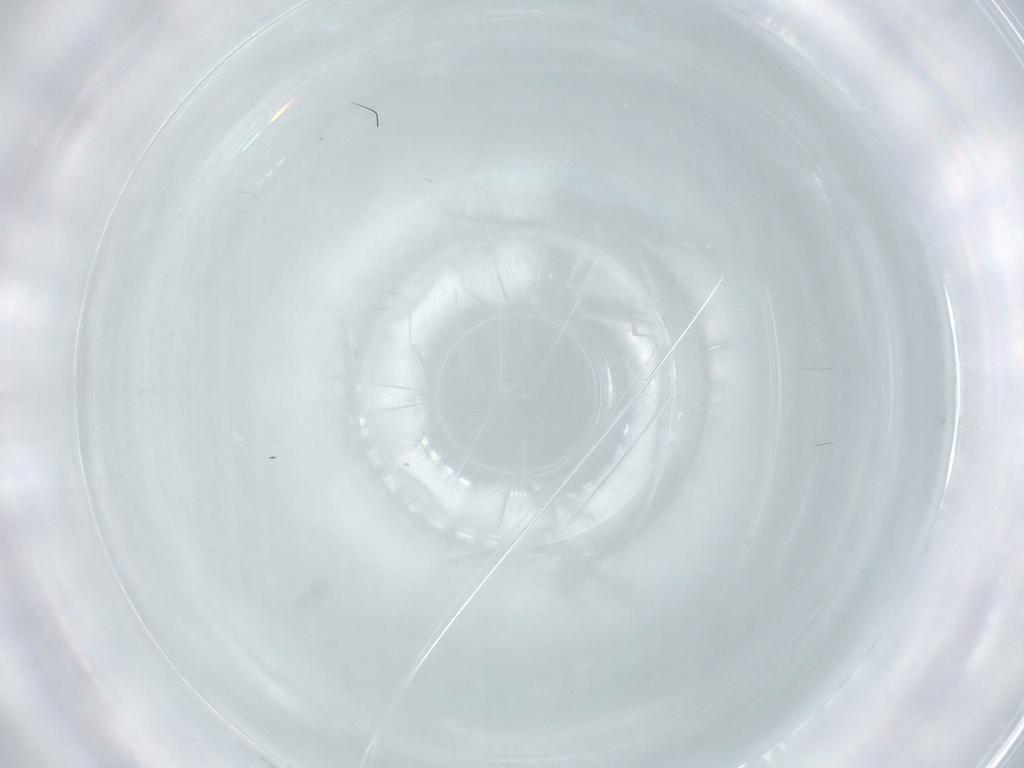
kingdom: Animalia
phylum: Arthropoda
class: Insecta
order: Diptera
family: Cecidomyiidae
